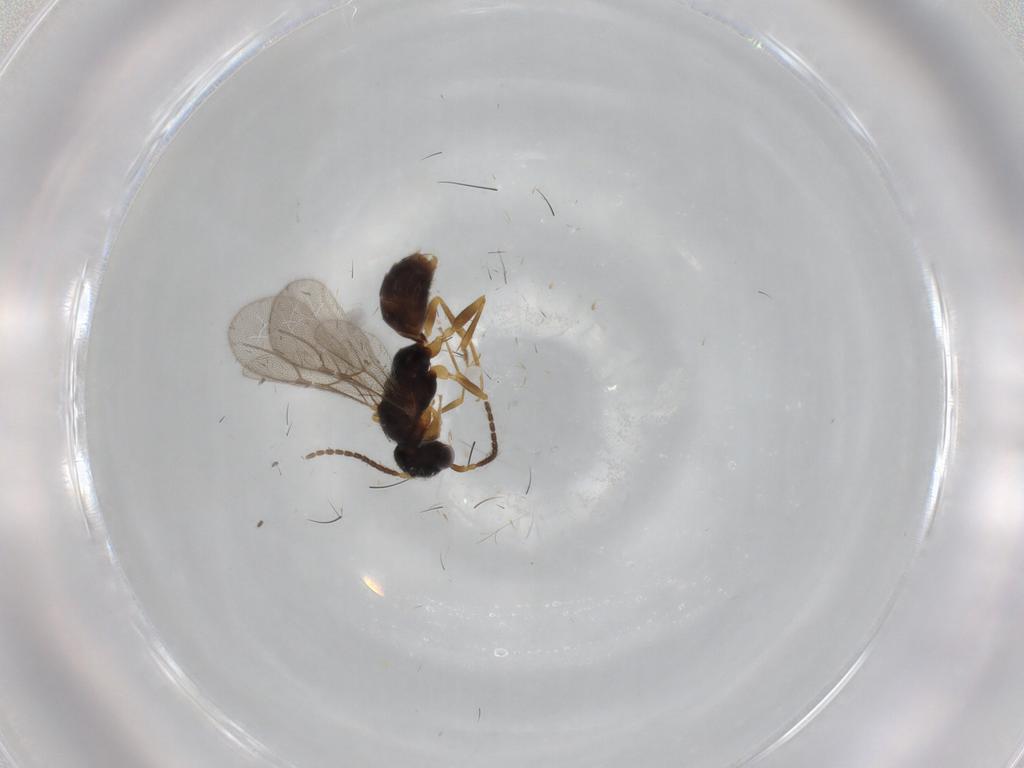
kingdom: Animalia
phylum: Arthropoda
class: Insecta
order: Hymenoptera
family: Bethylidae
